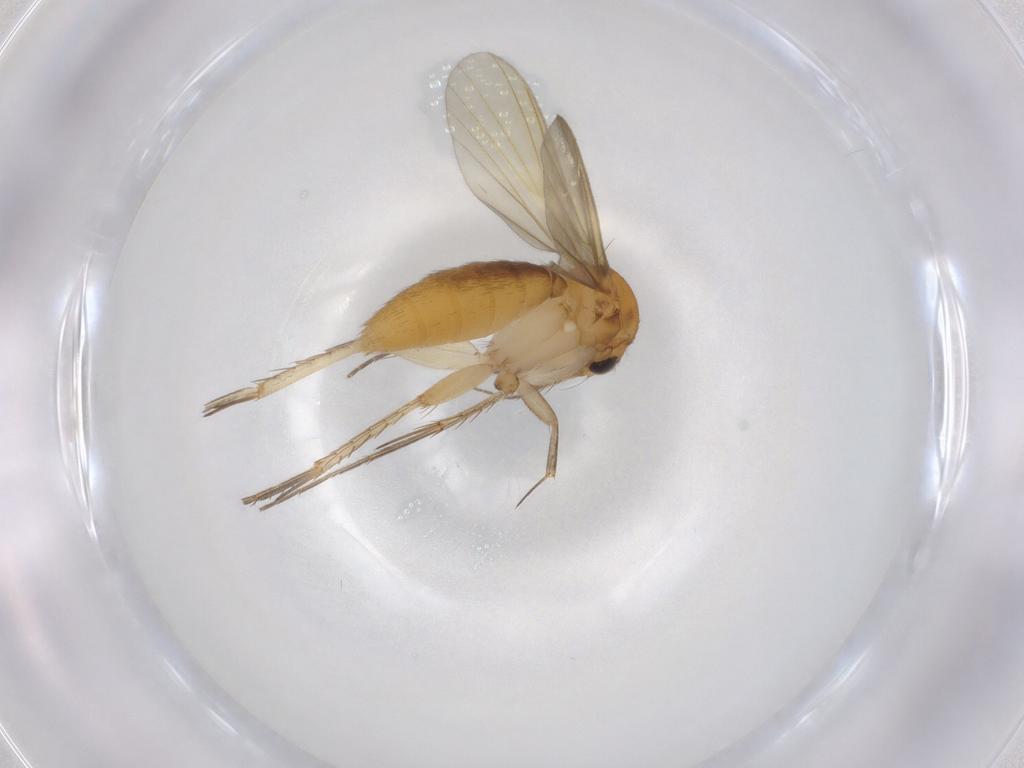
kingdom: Animalia
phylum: Arthropoda
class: Insecta
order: Diptera
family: Mycetophilidae
